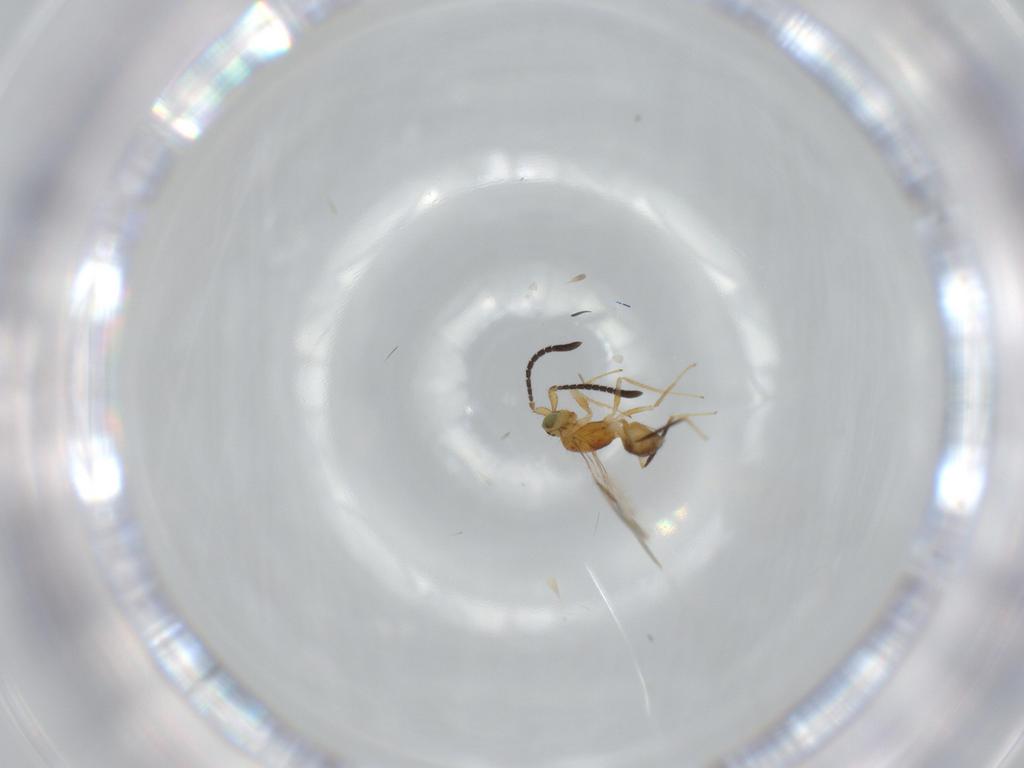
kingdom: Animalia
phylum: Arthropoda
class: Insecta
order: Hymenoptera
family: Mymaridae
